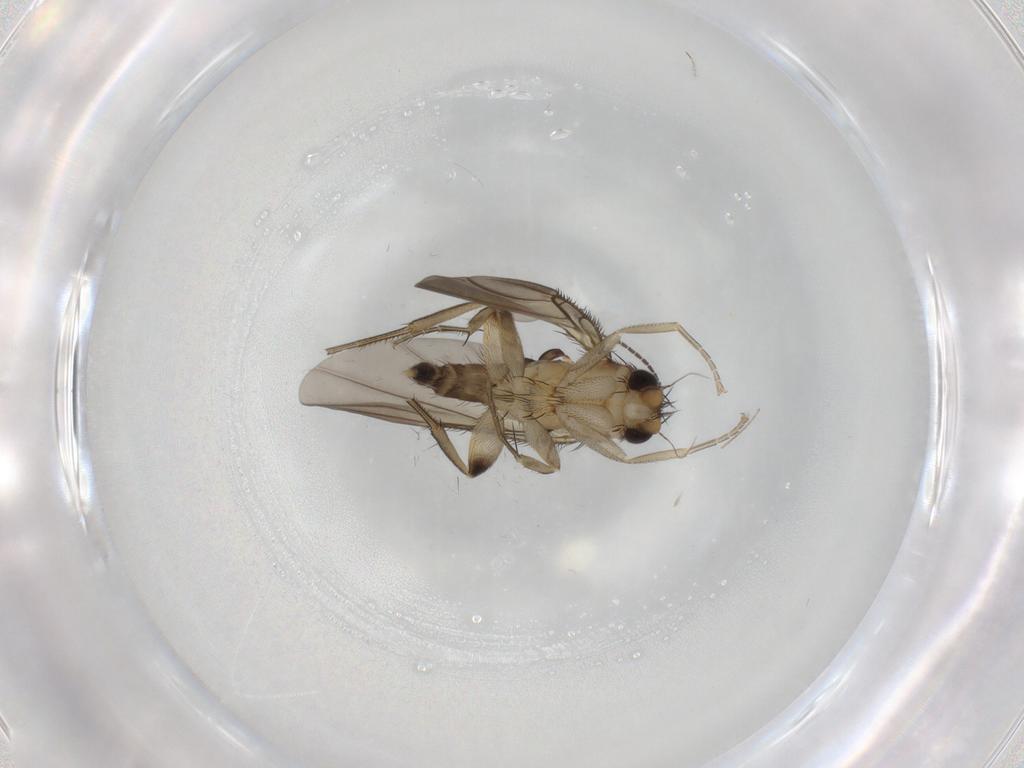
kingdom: Animalia
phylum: Arthropoda
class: Insecta
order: Diptera
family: Phoridae
